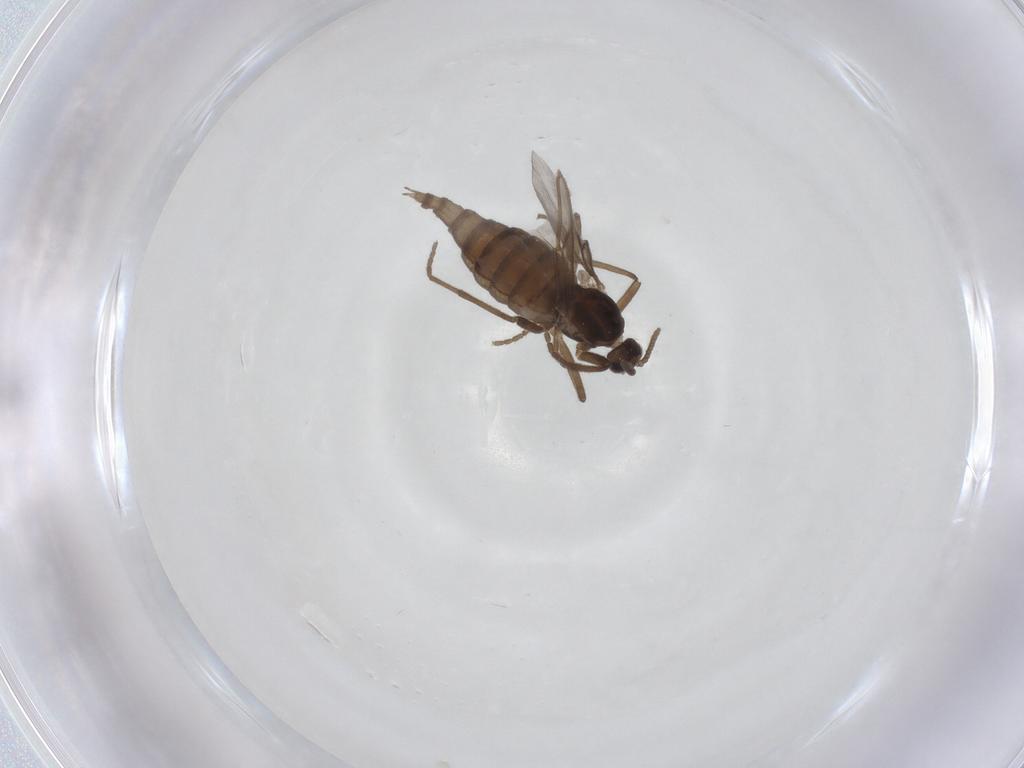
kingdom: Animalia
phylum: Arthropoda
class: Insecta
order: Diptera
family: Cecidomyiidae
